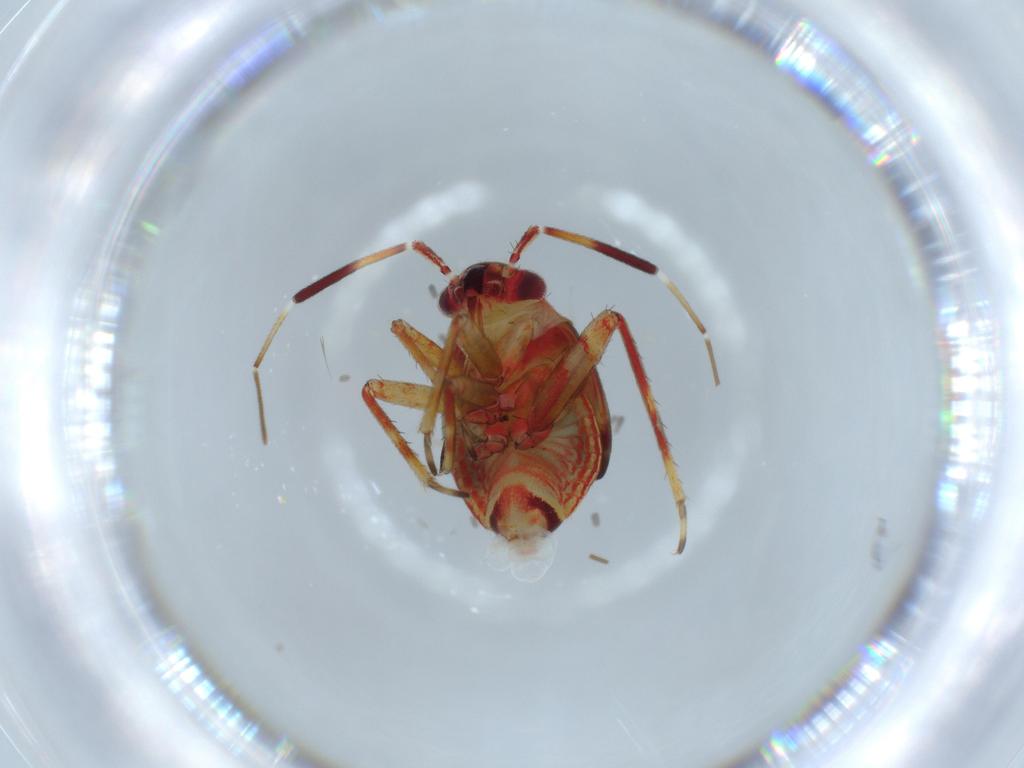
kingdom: Animalia
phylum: Arthropoda
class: Insecta
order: Hemiptera
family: Miridae
